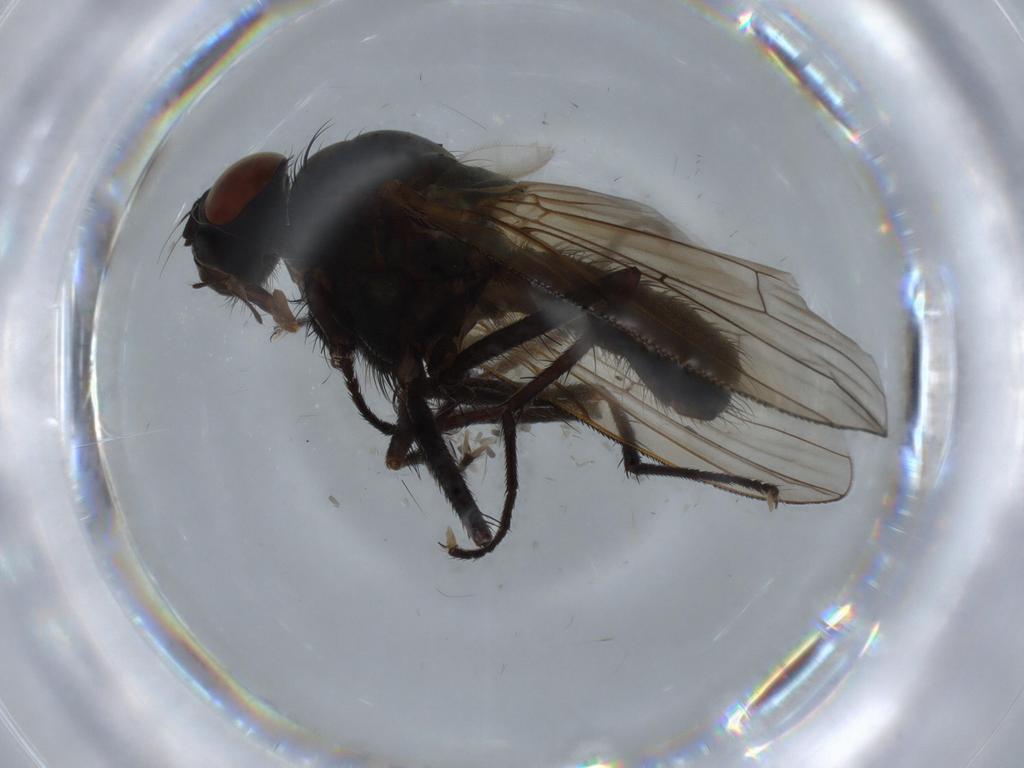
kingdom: Animalia
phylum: Arthropoda
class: Insecta
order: Diptera
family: Anthomyiidae
